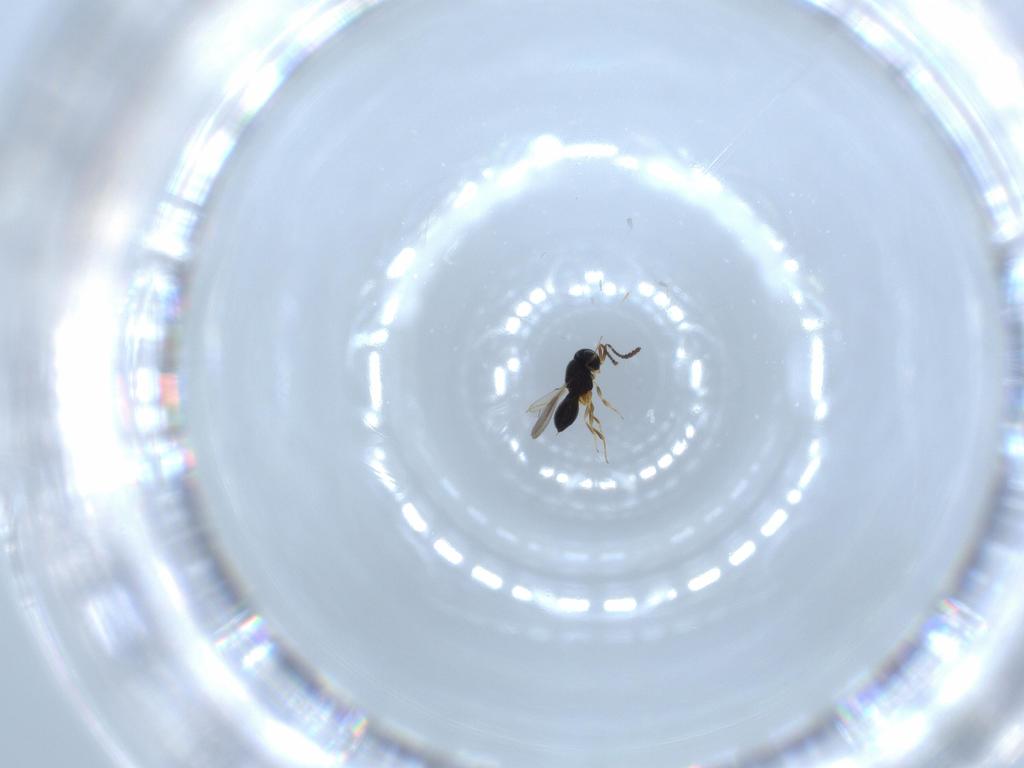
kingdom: Animalia
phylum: Arthropoda
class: Insecta
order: Hymenoptera
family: Scelionidae
